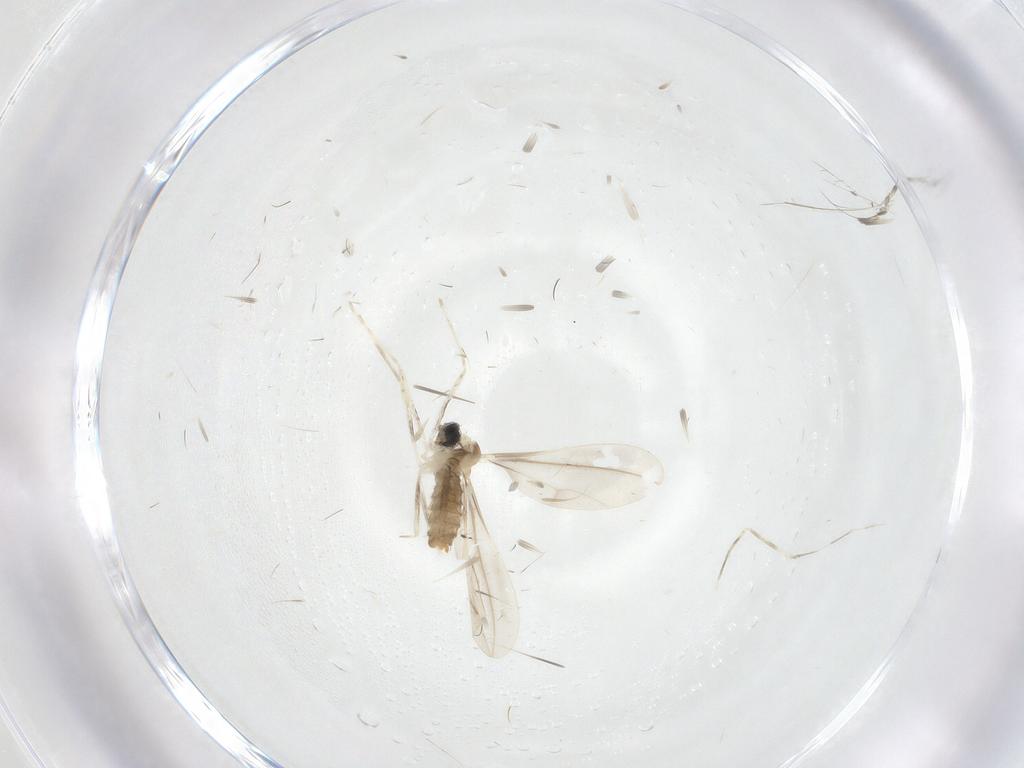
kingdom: Animalia
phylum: Arthropoda
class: Insecta
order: Diptera
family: Cecidomyiidae
